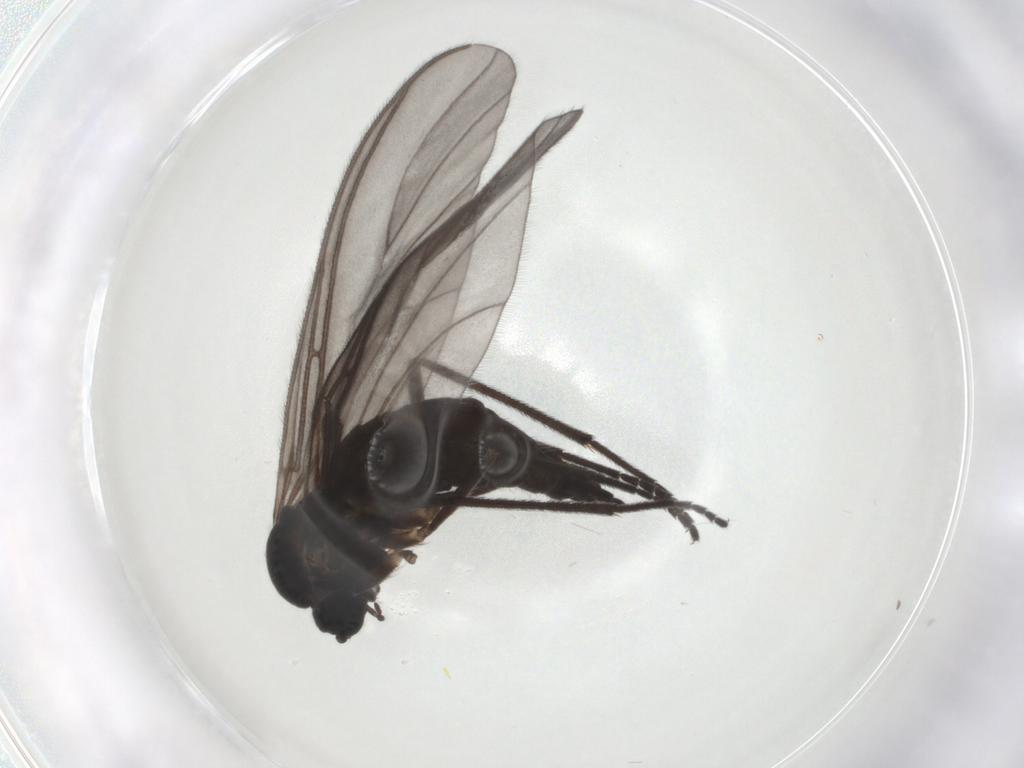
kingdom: Animalia
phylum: Arthropoda
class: Insecta
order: Diptera
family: Sciaridae
